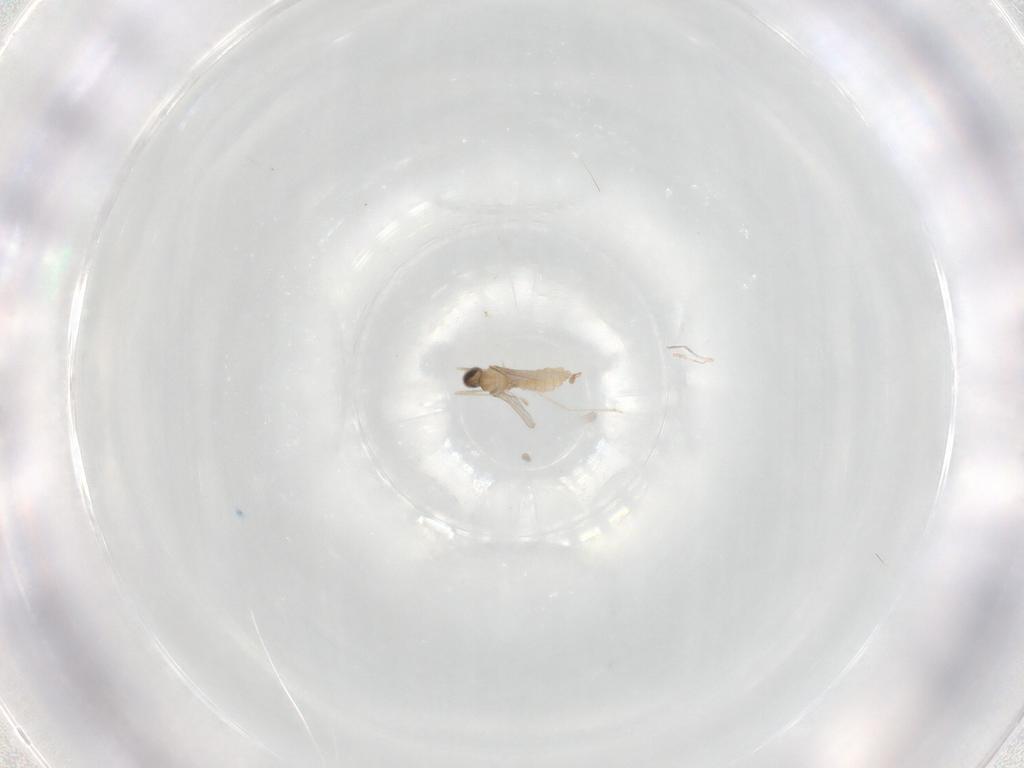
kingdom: Animalia
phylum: Arthropoda
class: Insecta
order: Diptera
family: Cecidomyiidae
